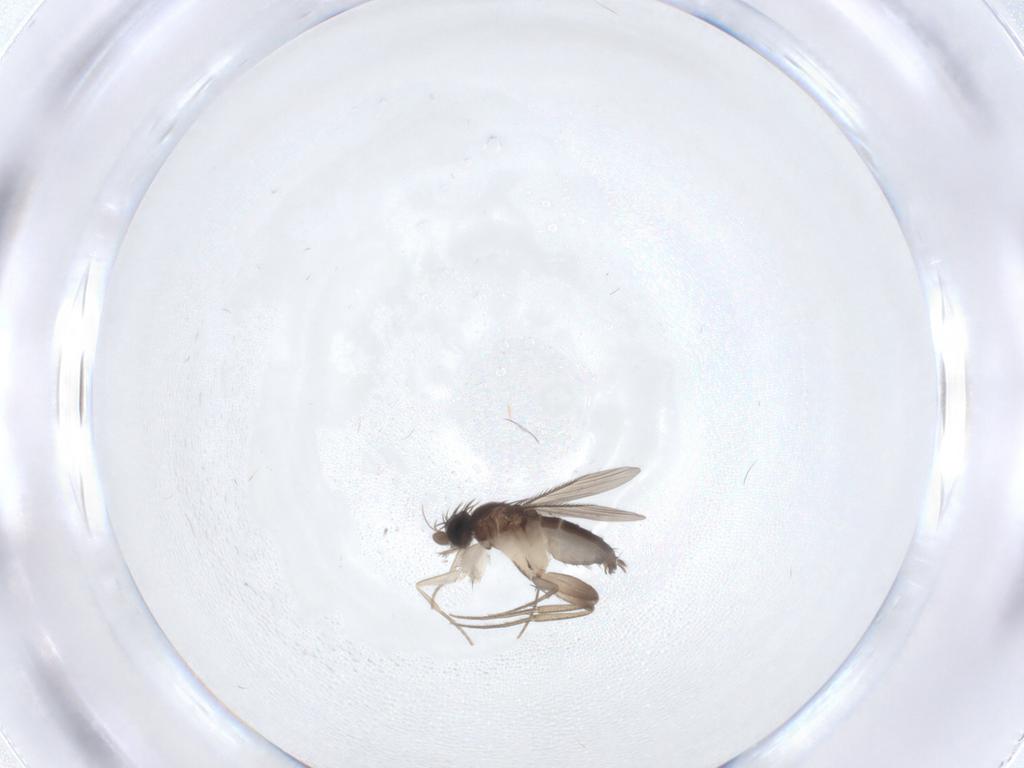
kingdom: Animalia
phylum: Arthropoda
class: Insecta
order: Diptera
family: Phoridae
